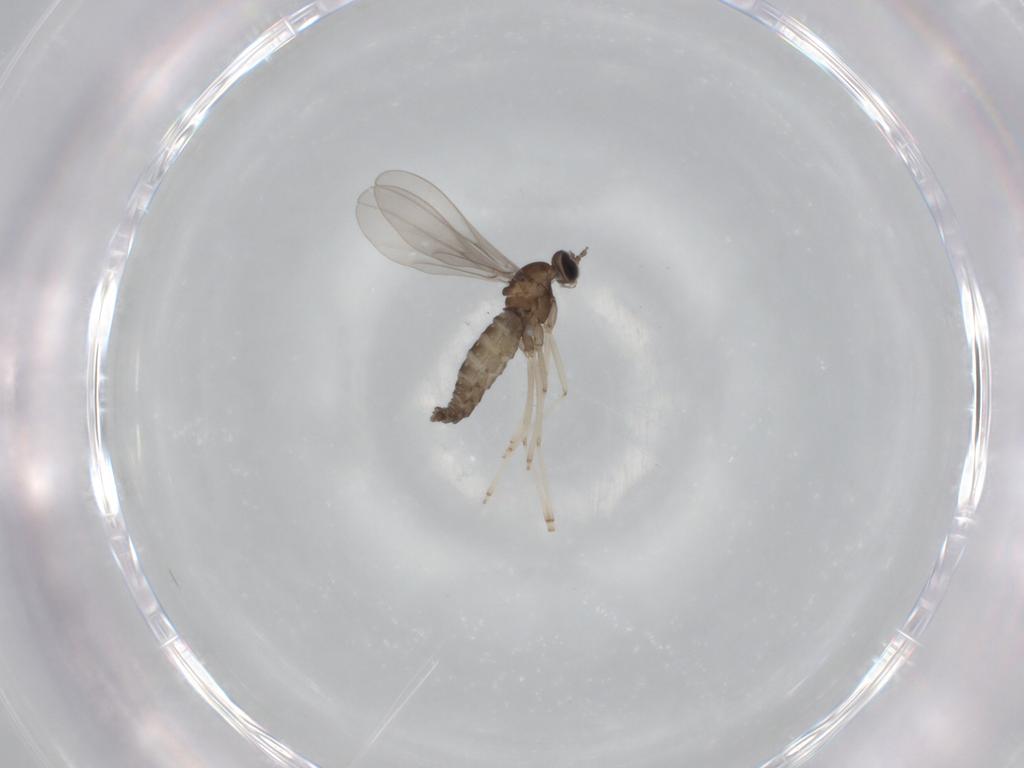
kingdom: Animalia
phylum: Arthropoda
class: Insecta
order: Diptera
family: Cecidomyiidae
